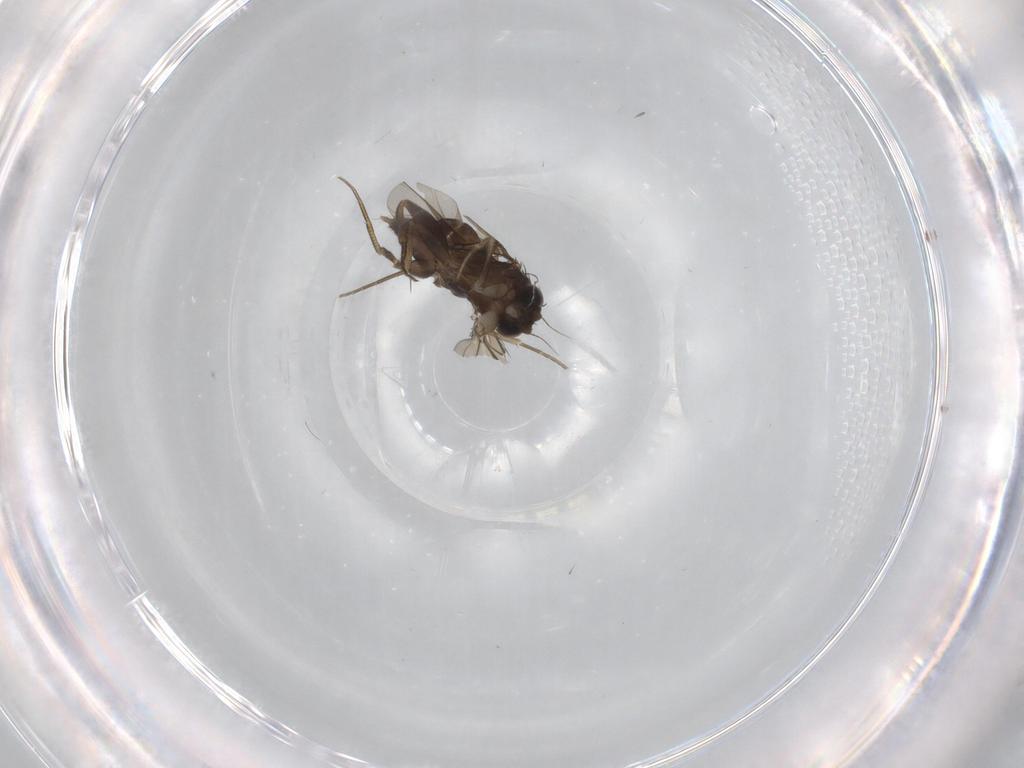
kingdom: Animalia
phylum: Arthropoda
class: Insecta
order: Diptera
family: Phoridae
